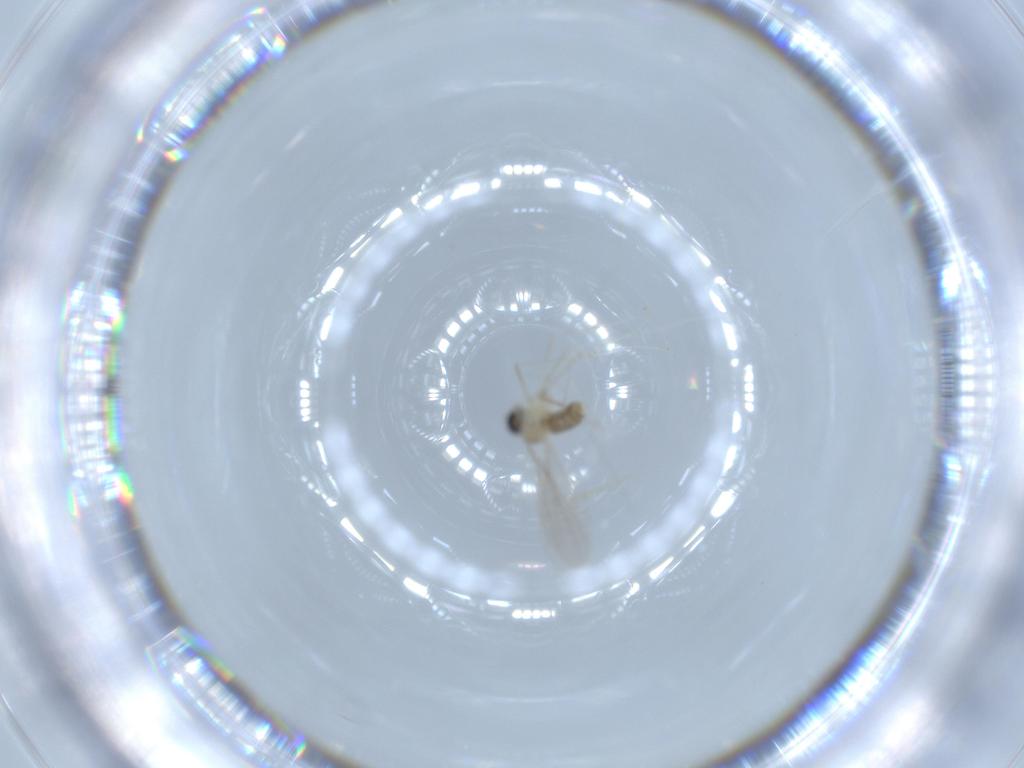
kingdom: Animalia
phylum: Arthropoda
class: Insecta
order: Diptera
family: Cecidomyiidae
